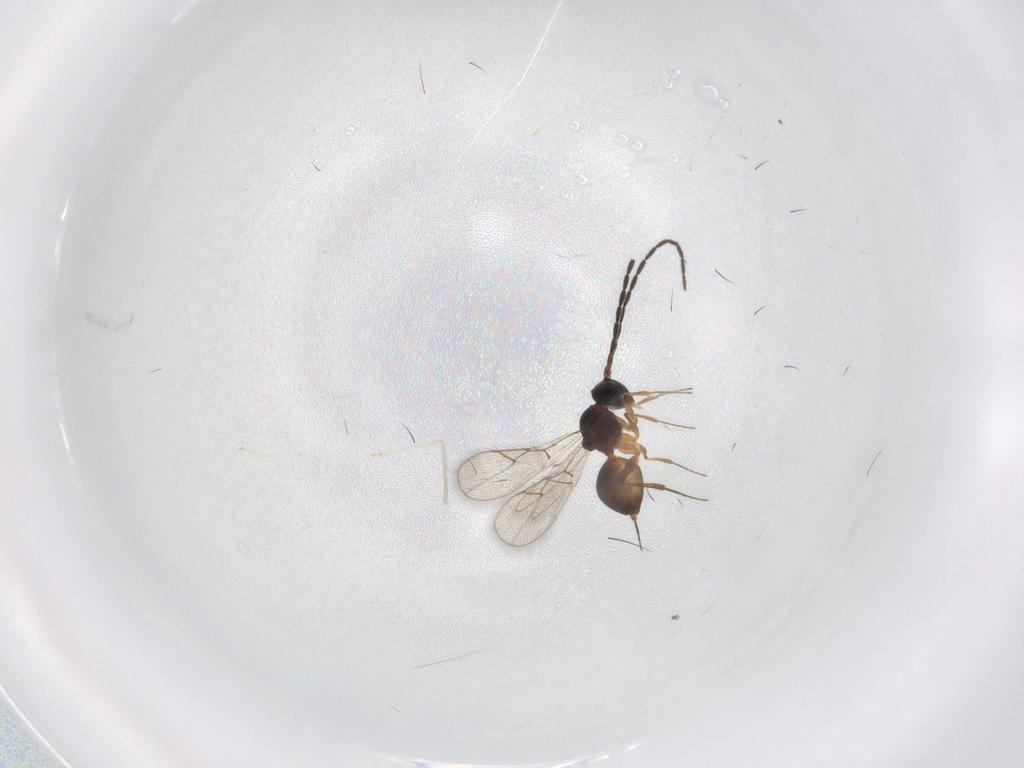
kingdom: Animalia
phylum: Arthropoda
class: Insecta
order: Hymenoptera
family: Figitidae
